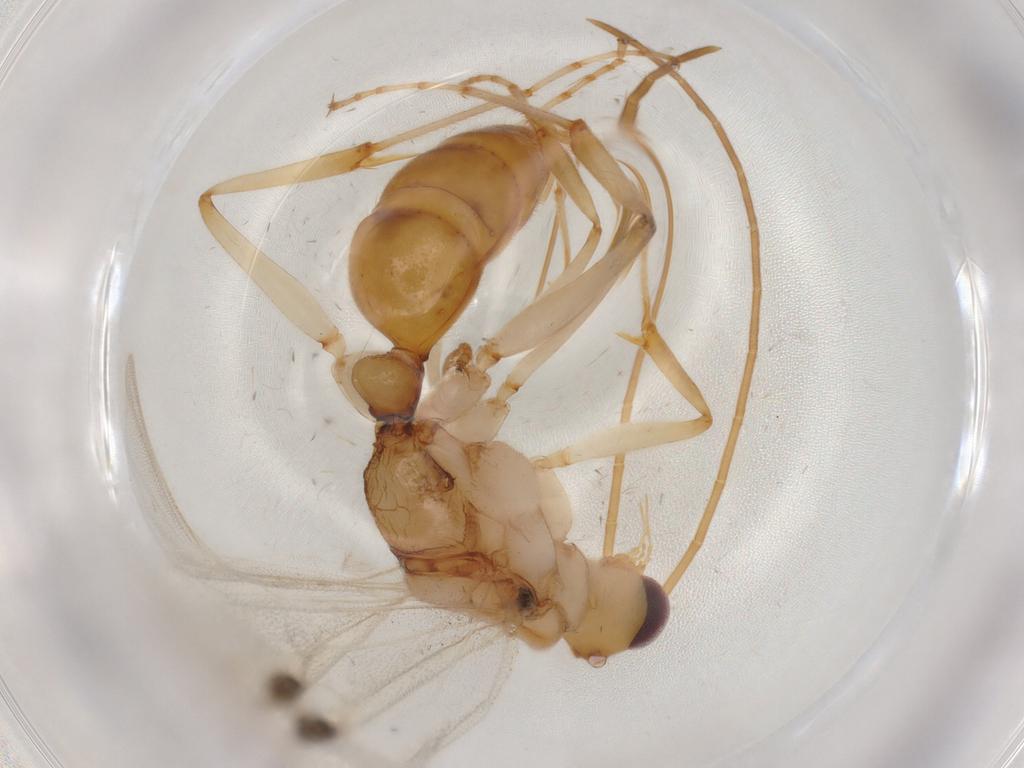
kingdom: Animalia
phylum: Arthropoda
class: Insecta
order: Hymenoptera
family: Formicidae
